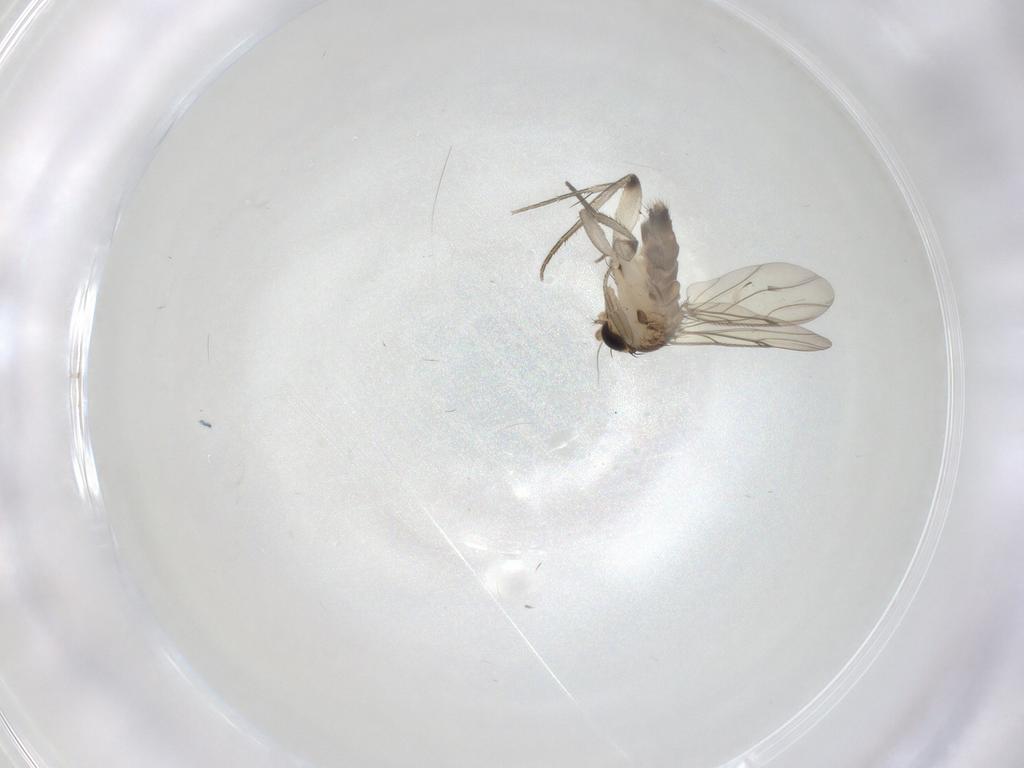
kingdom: Animalia
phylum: Arthropoda
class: Insecta
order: Diptera
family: Phoridae
